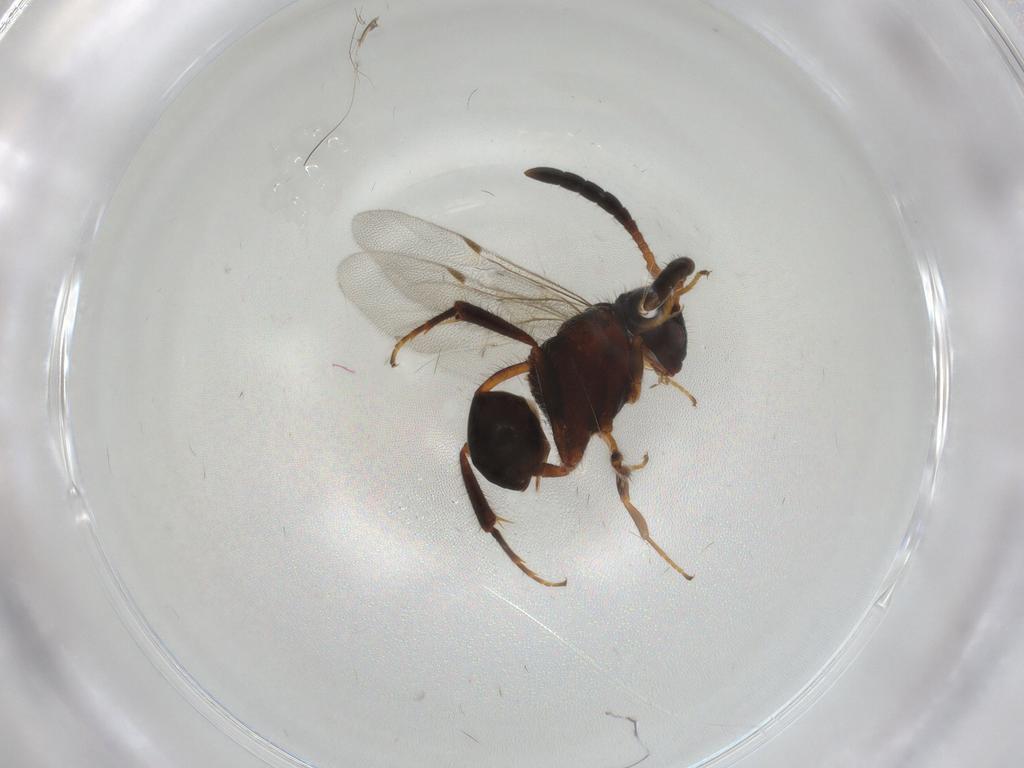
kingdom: Animalia
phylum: Arthropoda
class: Insecta
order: Hymenoptera
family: Evaniidae
